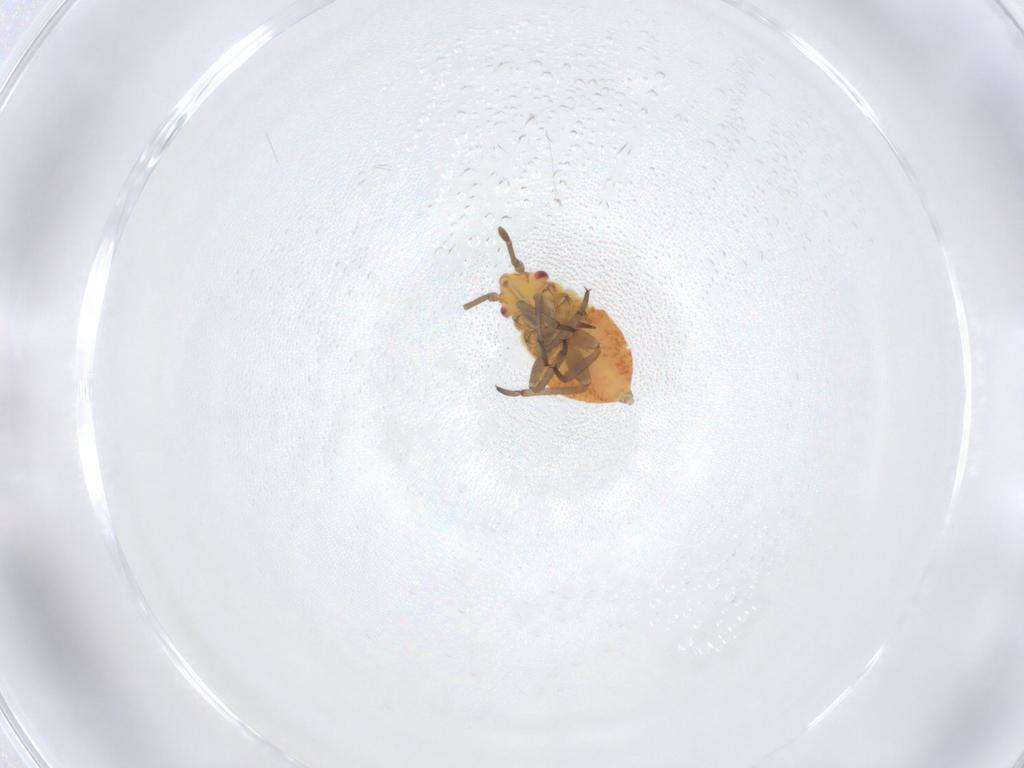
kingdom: Animalia
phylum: Arthropoda
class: Insecta
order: Hemiptera
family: Miridae
